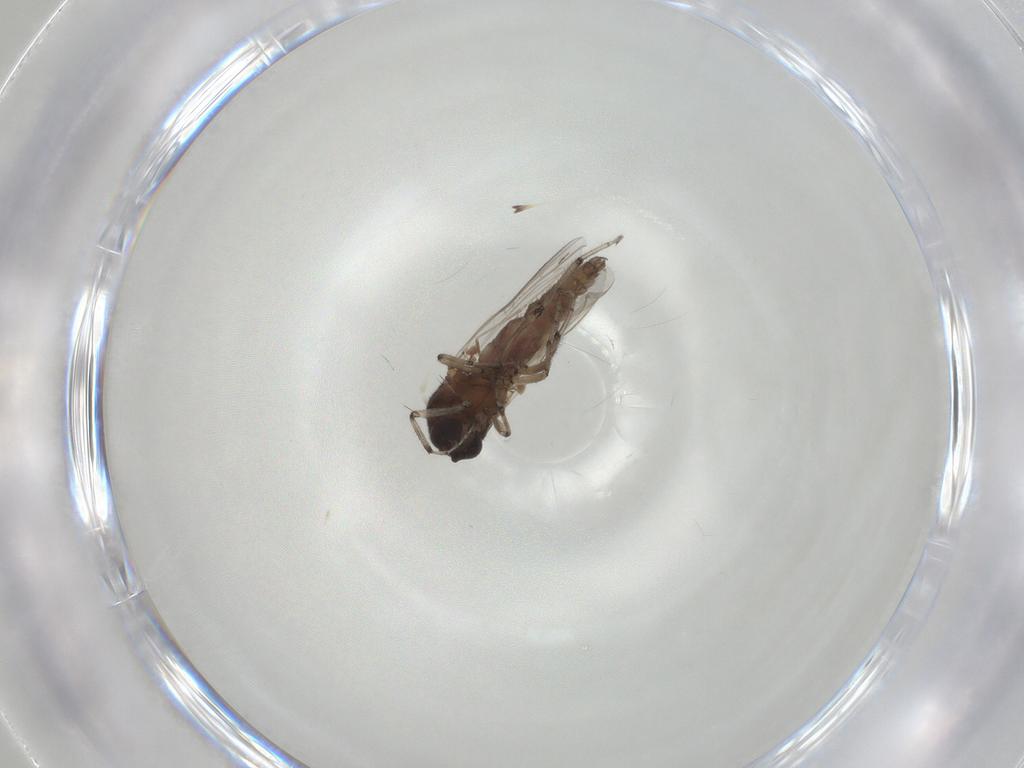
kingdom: Animalia
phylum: Arthropoda
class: Insecta
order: Diptera
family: Ceratopogonidae
